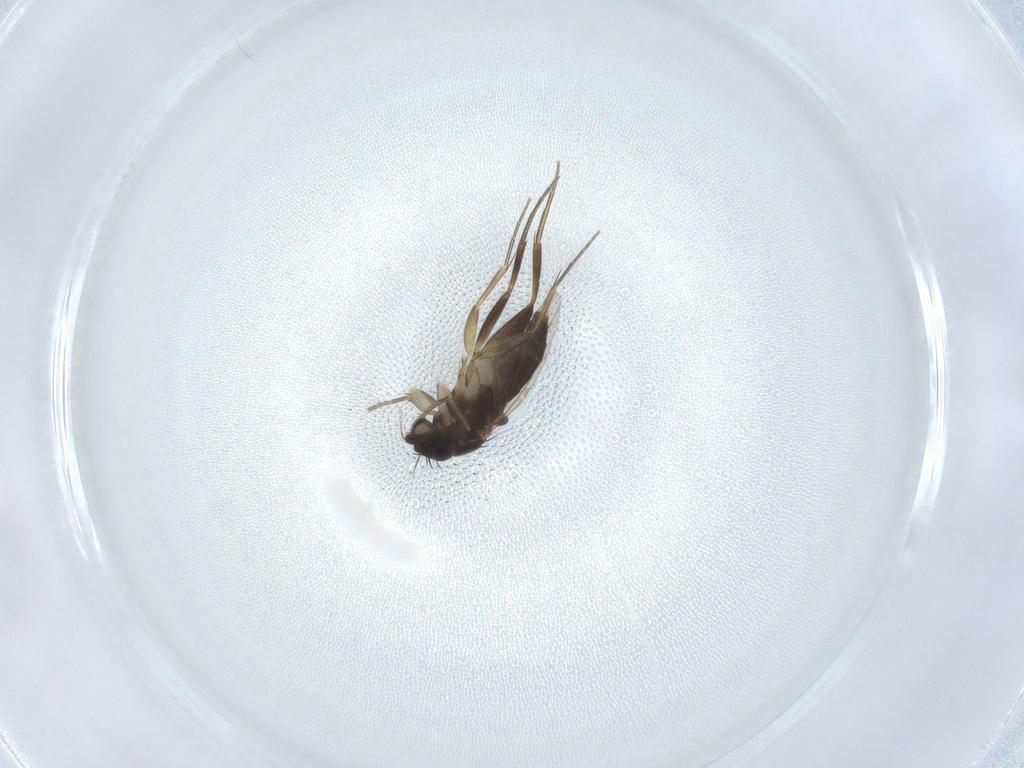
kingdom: Animalia
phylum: Arthropoda
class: Insecta
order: Diptera
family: Phoridae
